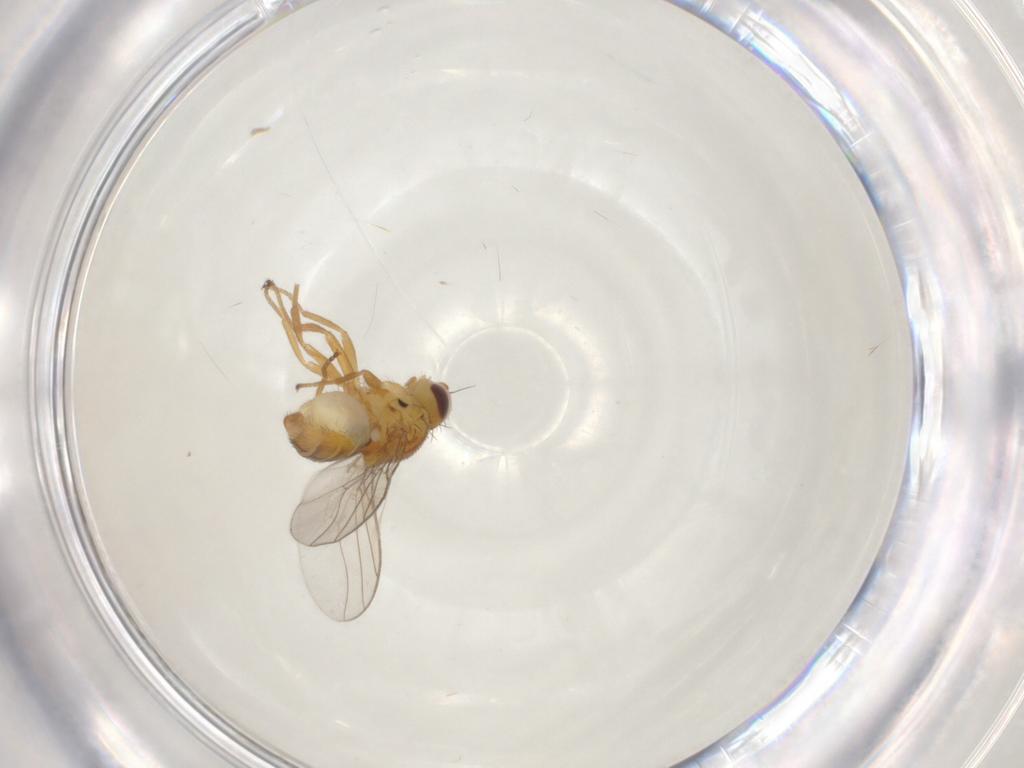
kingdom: Animalia
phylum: Arthropoda
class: Insecta
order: Diptera
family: Chloropidae
